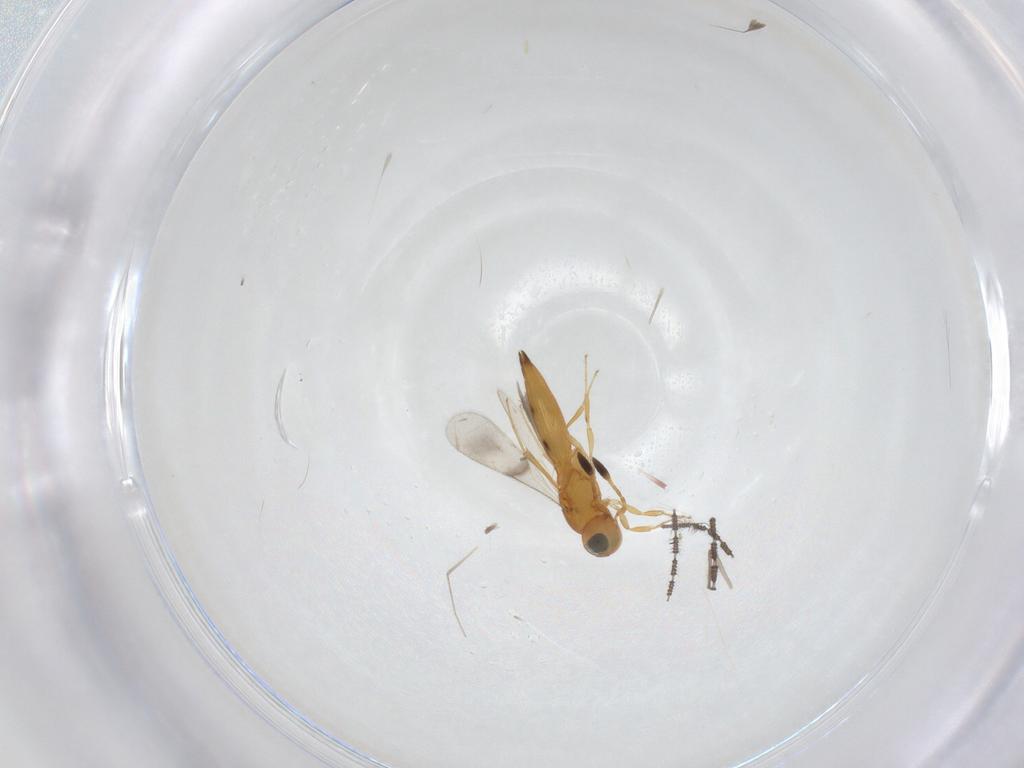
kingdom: Animalia
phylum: Arthropoda
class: Insecta
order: Hymenoptera
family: Scelionidae
